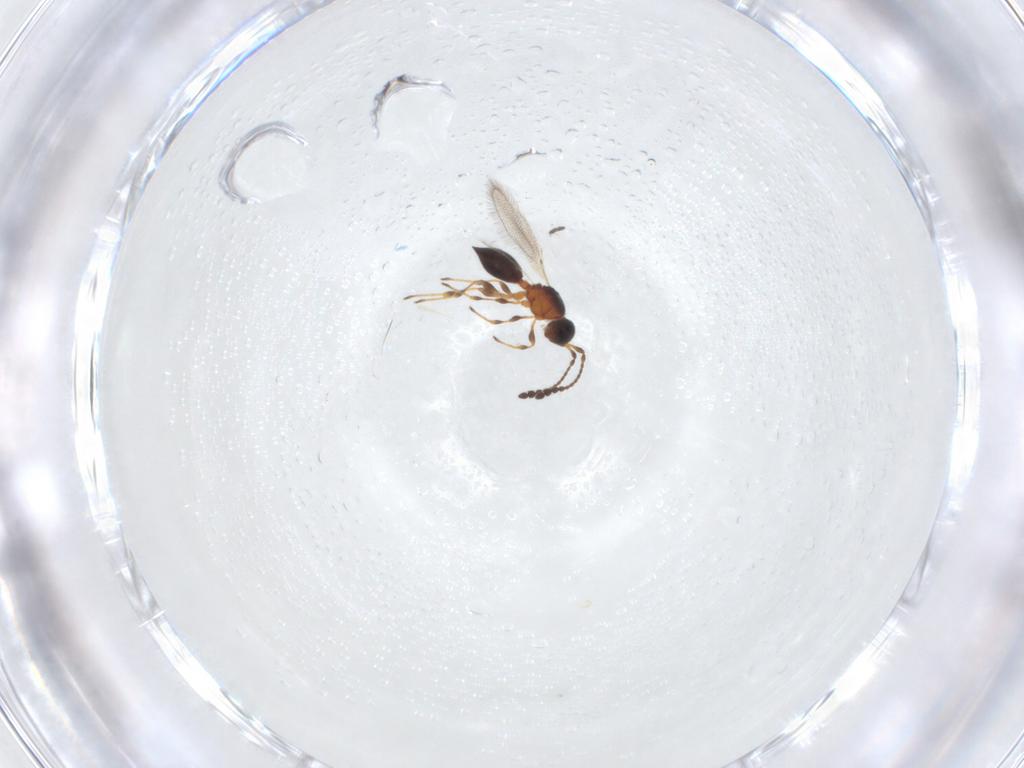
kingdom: Animalia
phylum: Arthropoda
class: Insecta
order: Hymenoptera
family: Diapriidae
